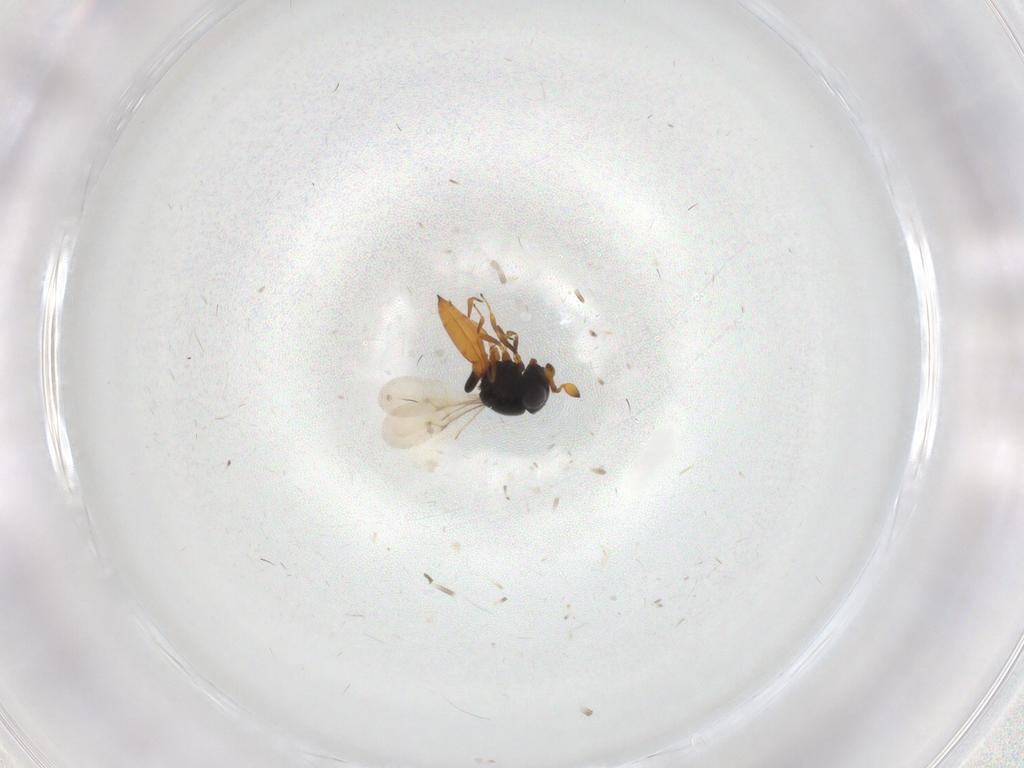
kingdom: Animalia
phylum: Arthropoda
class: Insecta
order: Hymenoptera
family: Scelionidae
